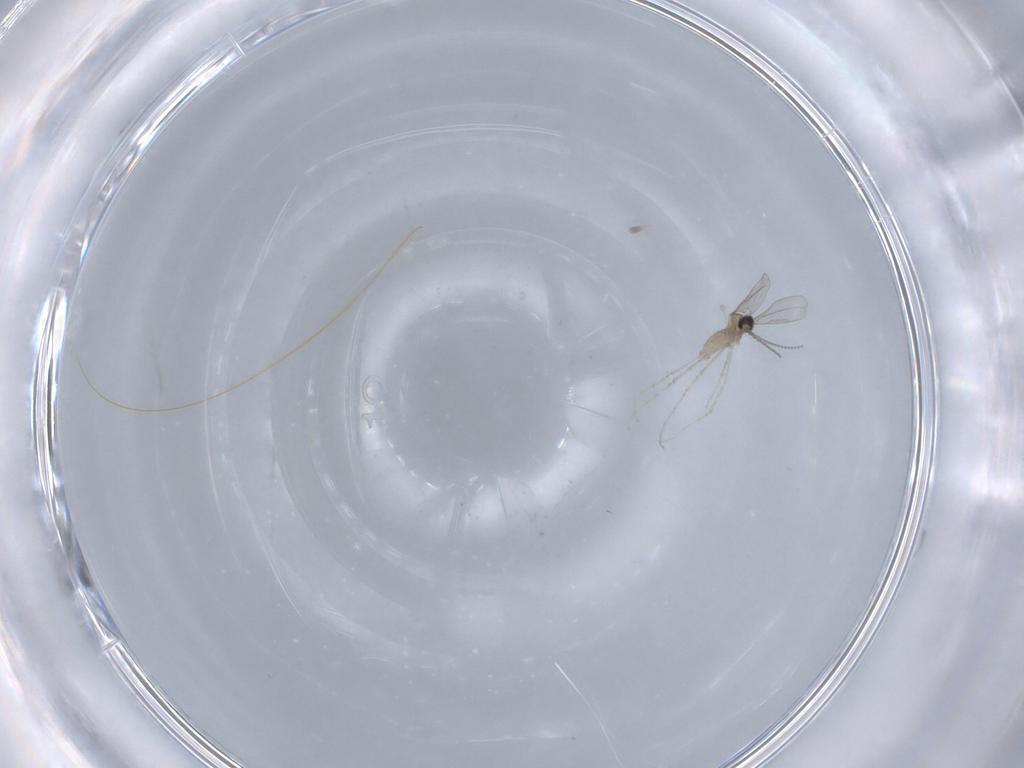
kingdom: Animalia
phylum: Arthropoda
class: Insecta
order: Diptera
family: Cecidomyiidae
